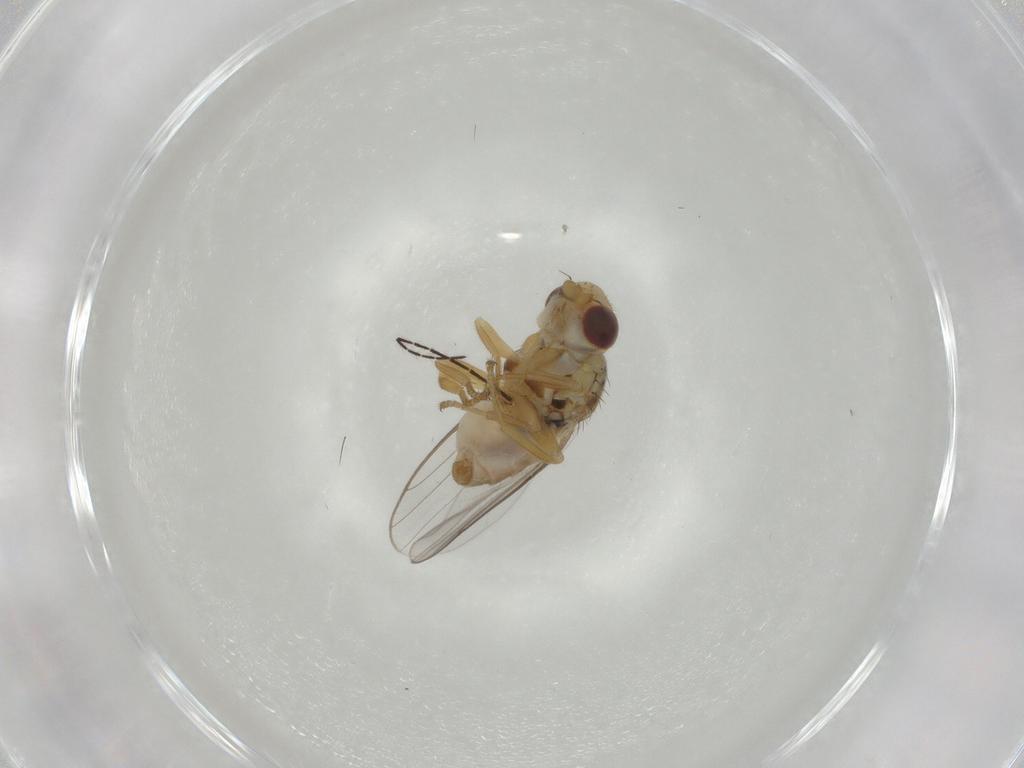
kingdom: Animalia
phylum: Arthropoda
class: Insecta
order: Diptera
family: Chloropidae
